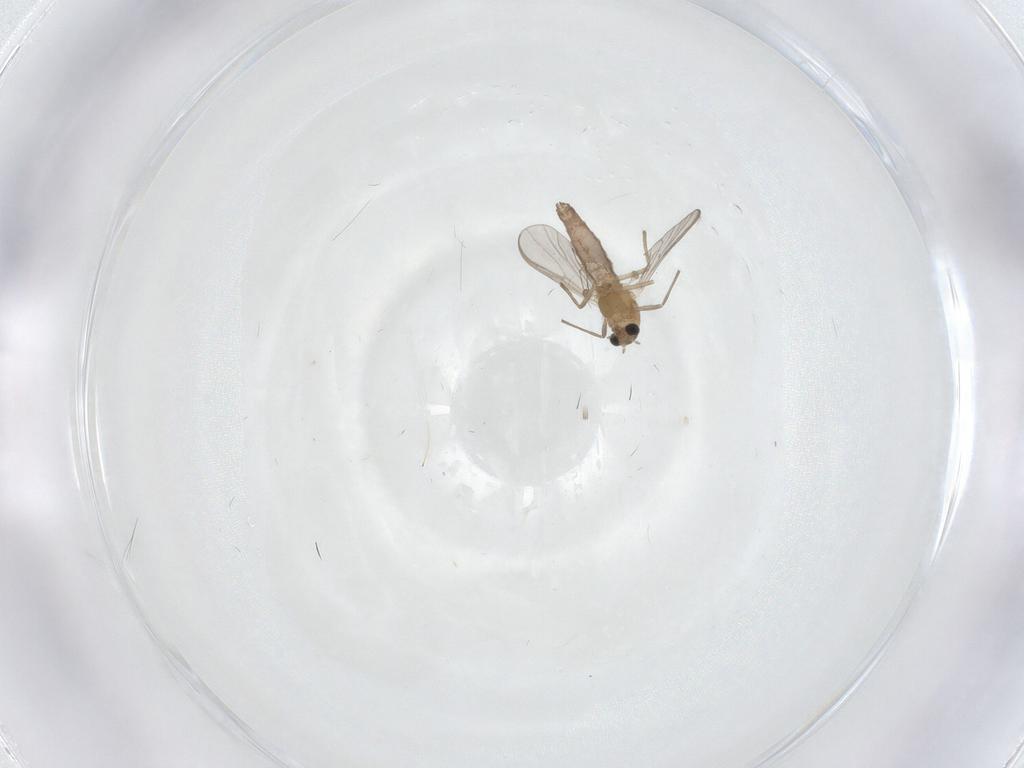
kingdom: Animalia
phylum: Arthropoda
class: Insecta
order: Diptera
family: Chironomidae
